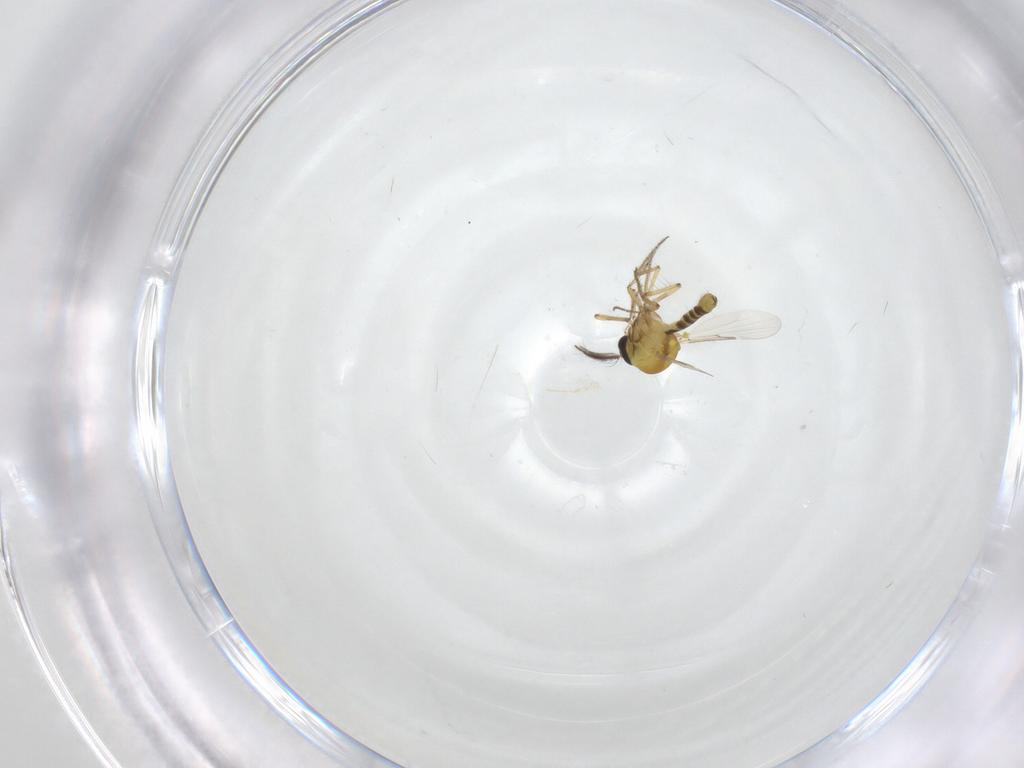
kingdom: Animalia
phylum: Arthropoda
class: Insecta
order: Diptera
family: Ceratopogonidae
